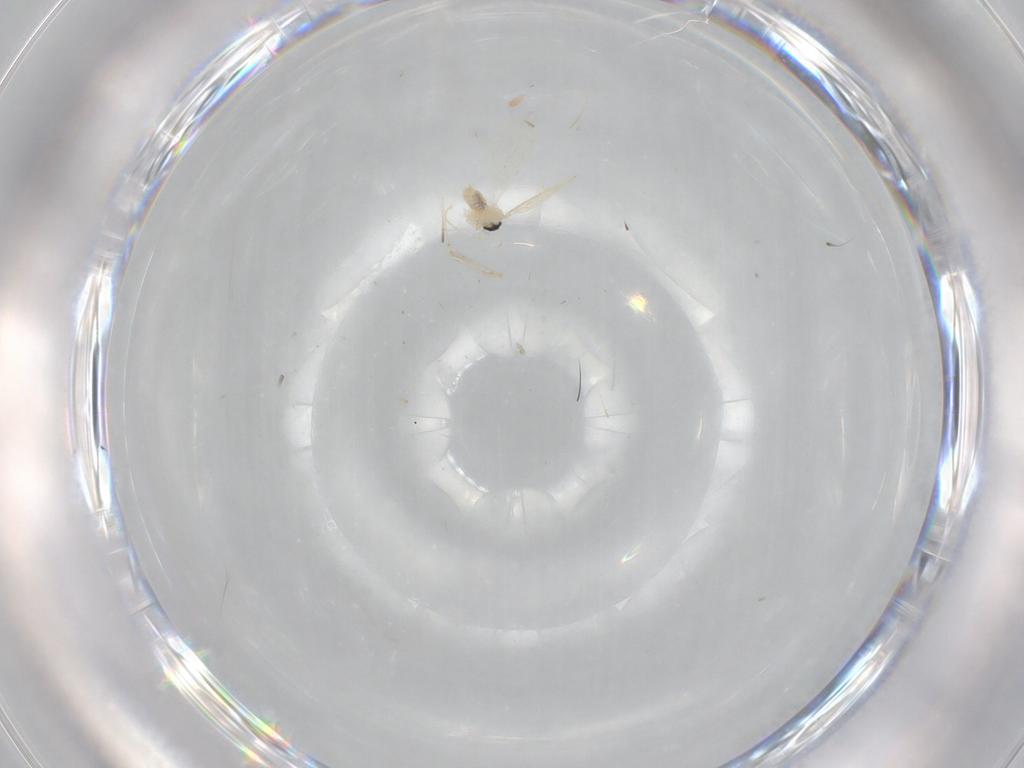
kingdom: Animalia
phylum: Arthropoda
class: Insecta
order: Diptera
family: Cecidomyiidae
